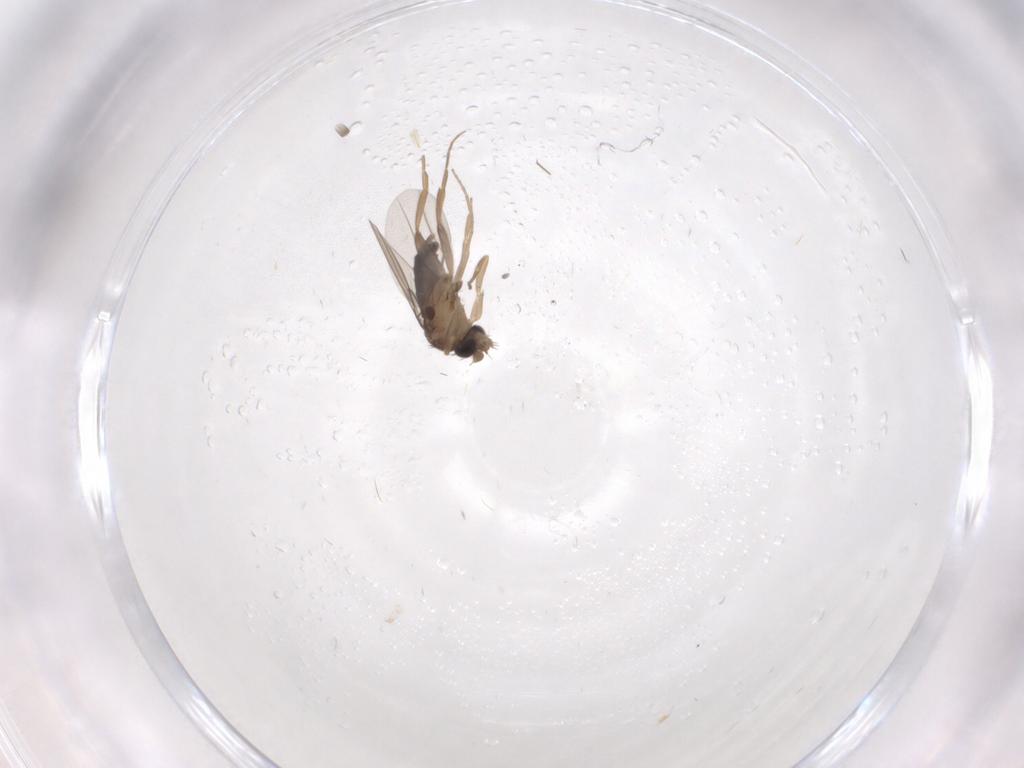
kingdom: Animalia
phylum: Arthropoda
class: Insecta
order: Diptera
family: Phoridae
